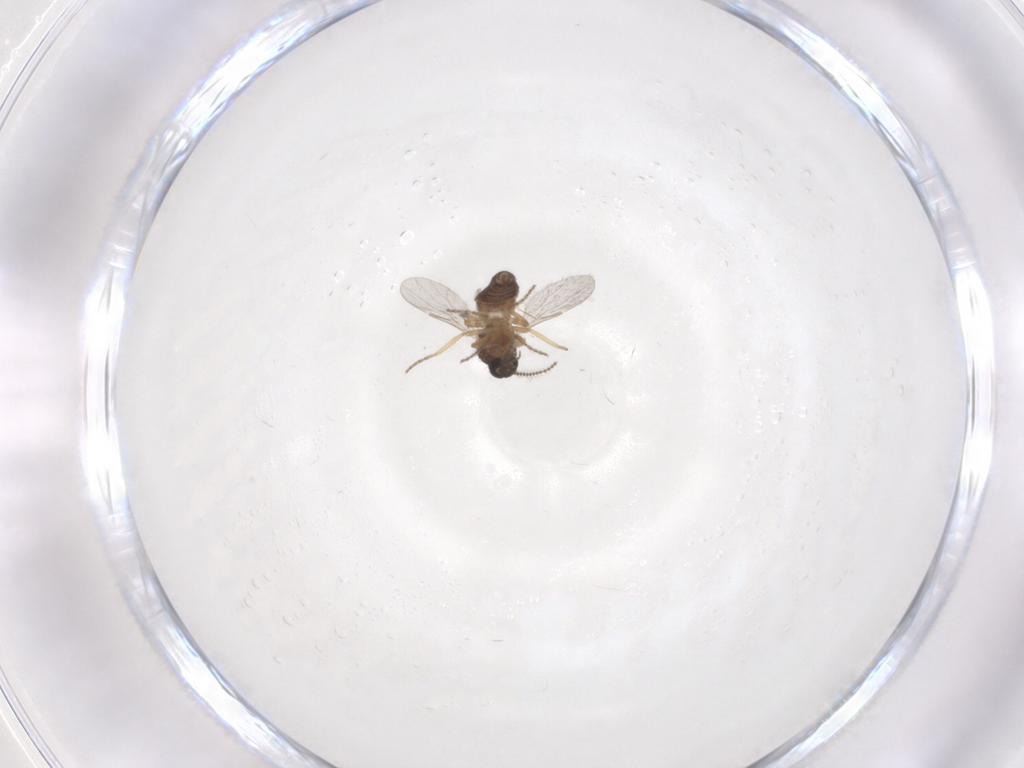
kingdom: Animalia
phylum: Arthropoda
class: Insecta
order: Diptera
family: Ceratopogonidae
